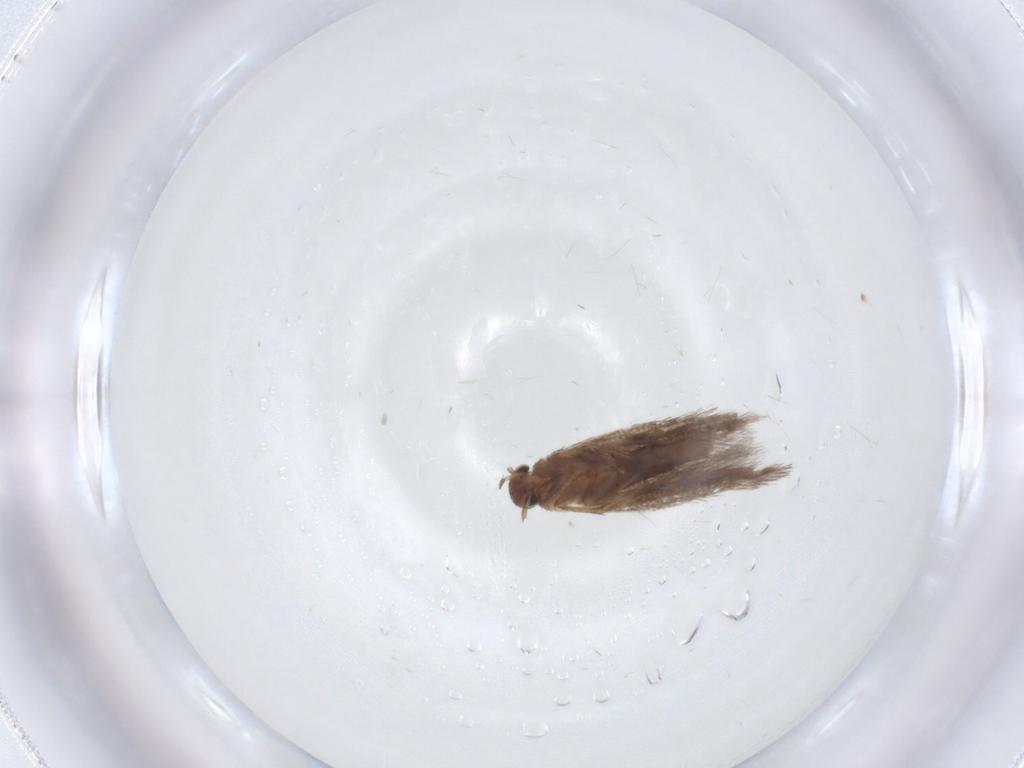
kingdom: Animalia
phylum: Arthropoda
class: Insecta
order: Lepidoptera
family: Gelechiidae
